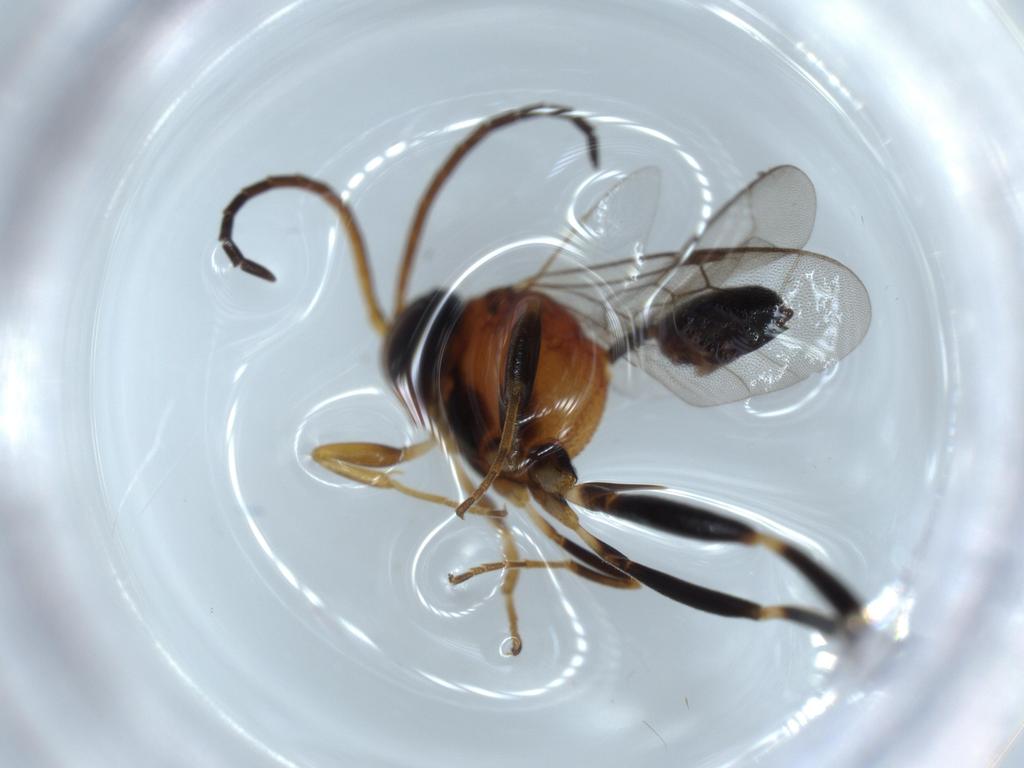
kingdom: Animalia
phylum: Arthropoda
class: Insecta
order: Hymenoptera
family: Evaniidae
